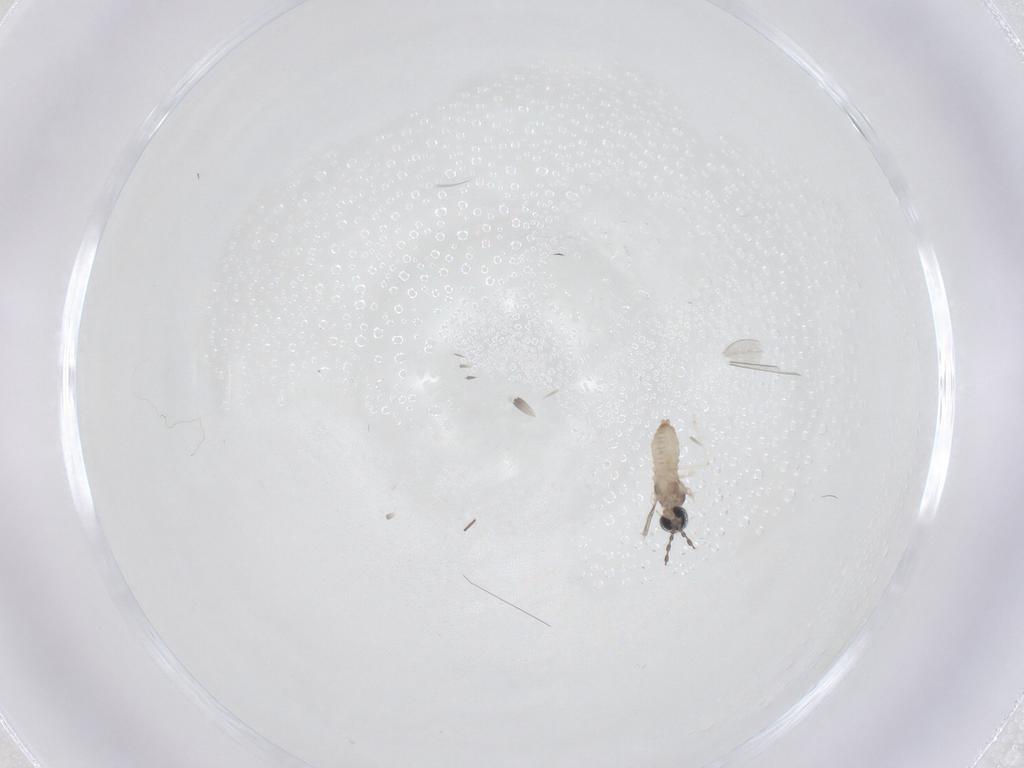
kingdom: Animalia
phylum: Arthropoda
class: Insecta
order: Diptera
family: Cecidomyiidae
